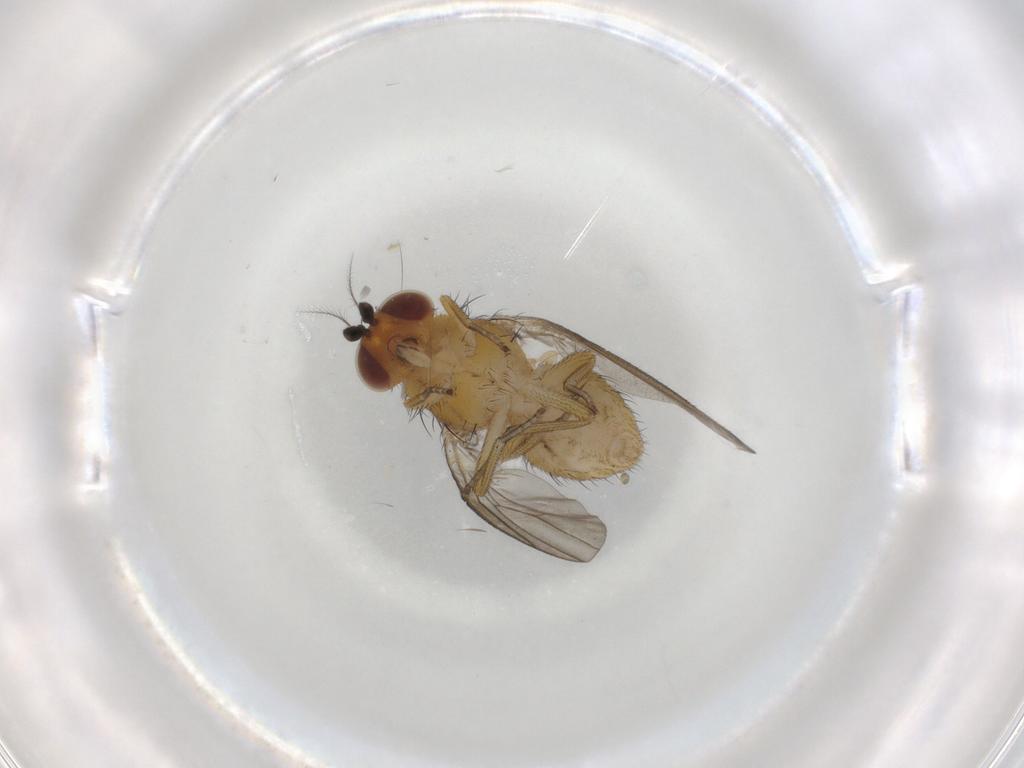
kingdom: Animalia
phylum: Arthropoda
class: Insecta
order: Diptera
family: Lauxaniidae
